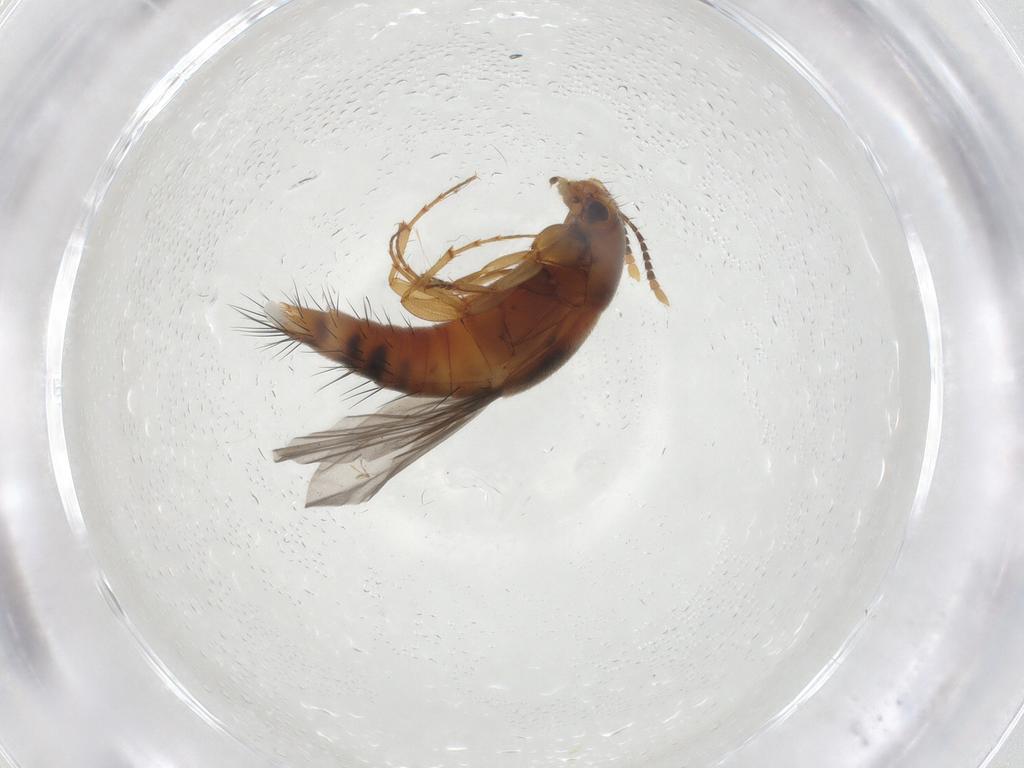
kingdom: Animalia
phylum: Arthropoda
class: Insecta
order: Coleoptera
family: Staphylinidae
